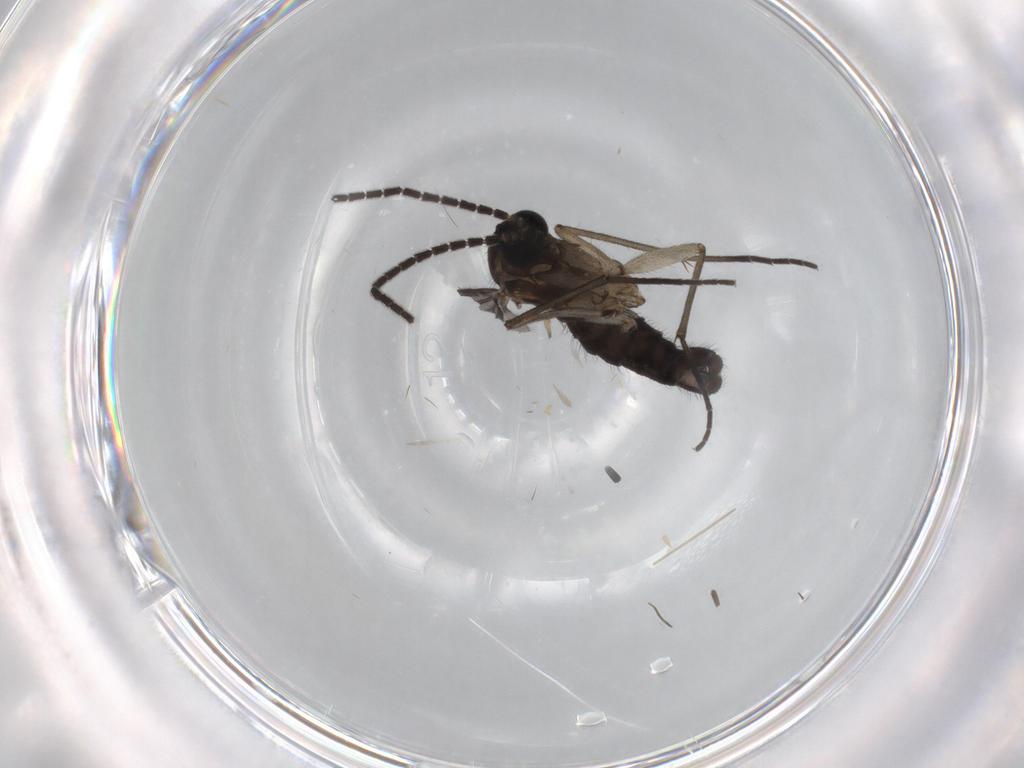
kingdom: Animalia
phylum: Arthropoda
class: Insecta
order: Diptera
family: Sciaridae
